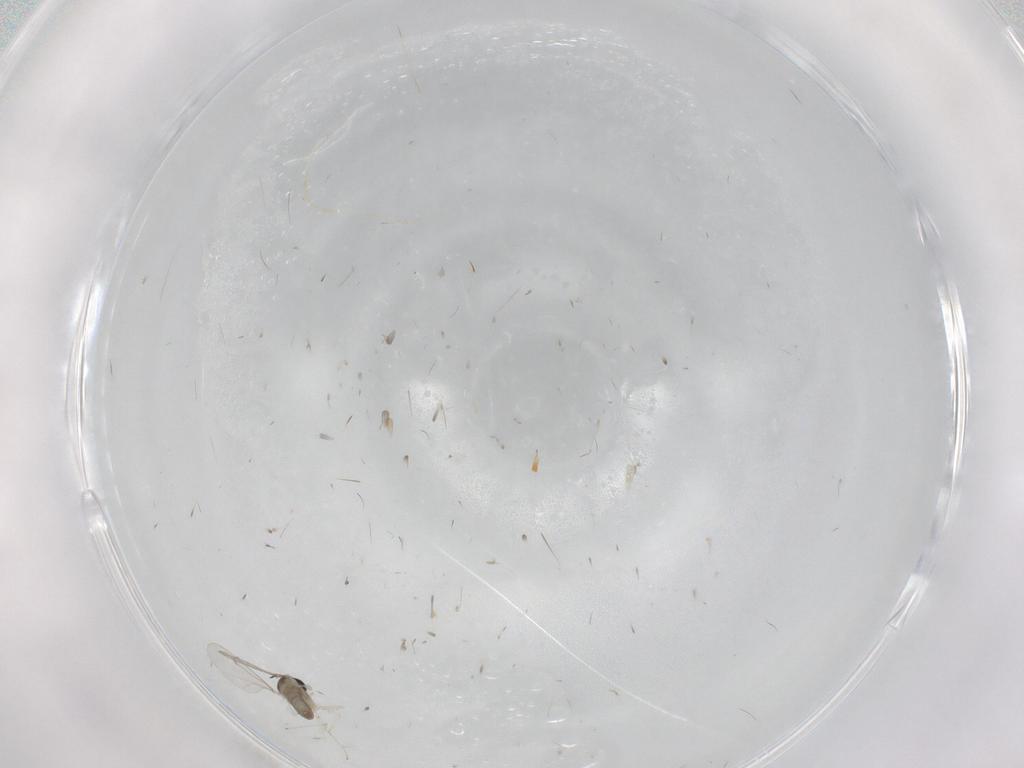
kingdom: Animalia
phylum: Arthropoda
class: Insecta
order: Diptera
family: Cecidomyiidae
